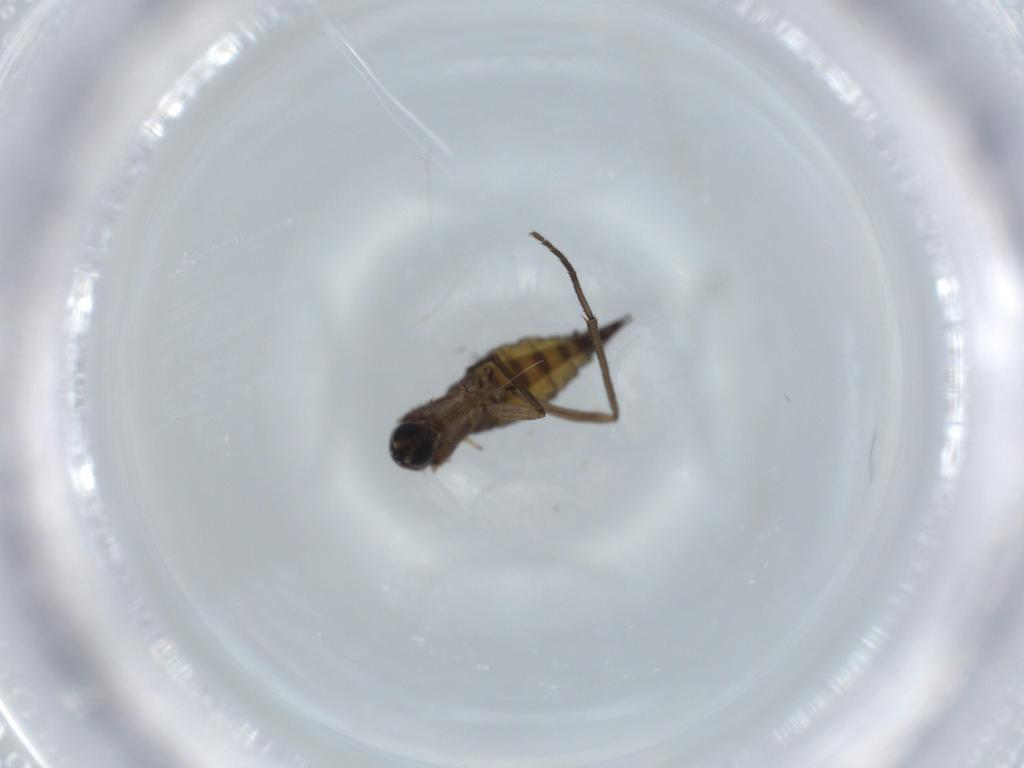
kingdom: Animalia
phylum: Arthropoda
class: Insecta
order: Diptera
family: Sciaridae
